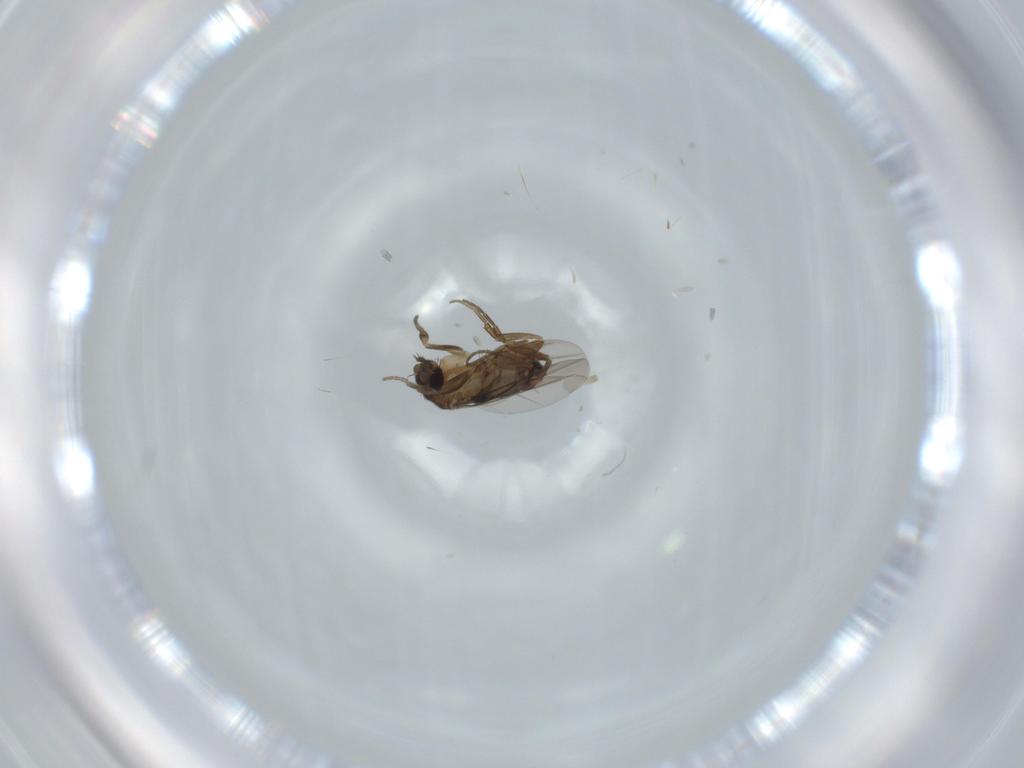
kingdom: Animalia
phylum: Arthropoda
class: Insecta
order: Diptera
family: Phoridae
